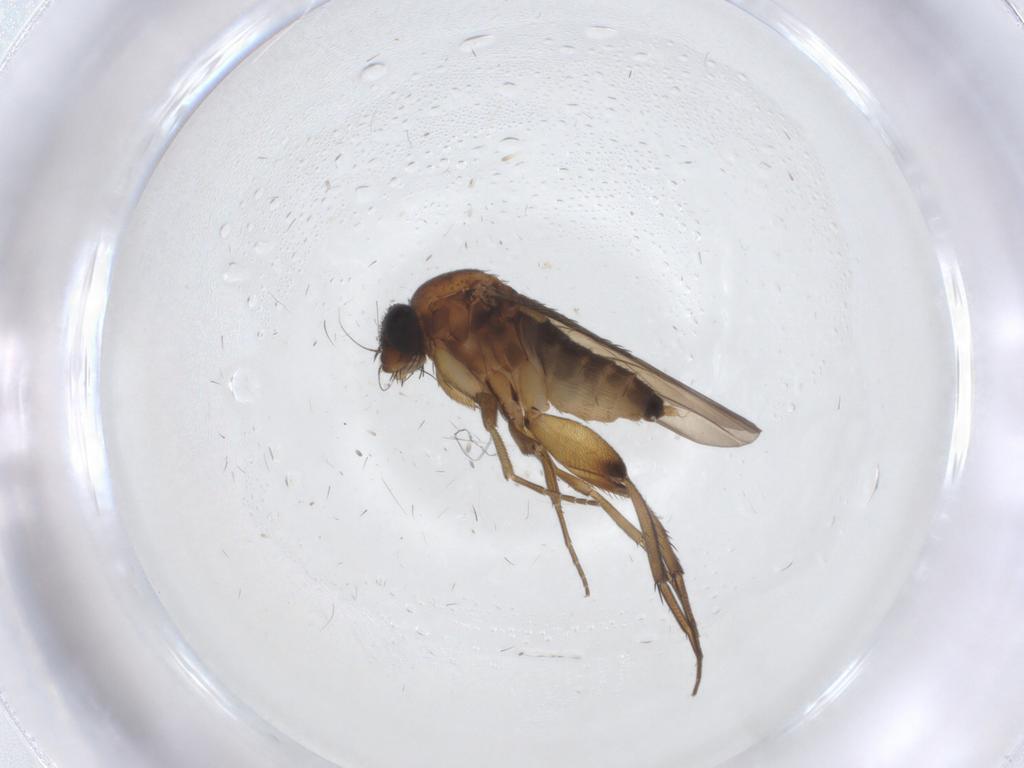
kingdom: Animalia
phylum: Arthropoda
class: Insecta
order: Diptera
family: Phoridae
